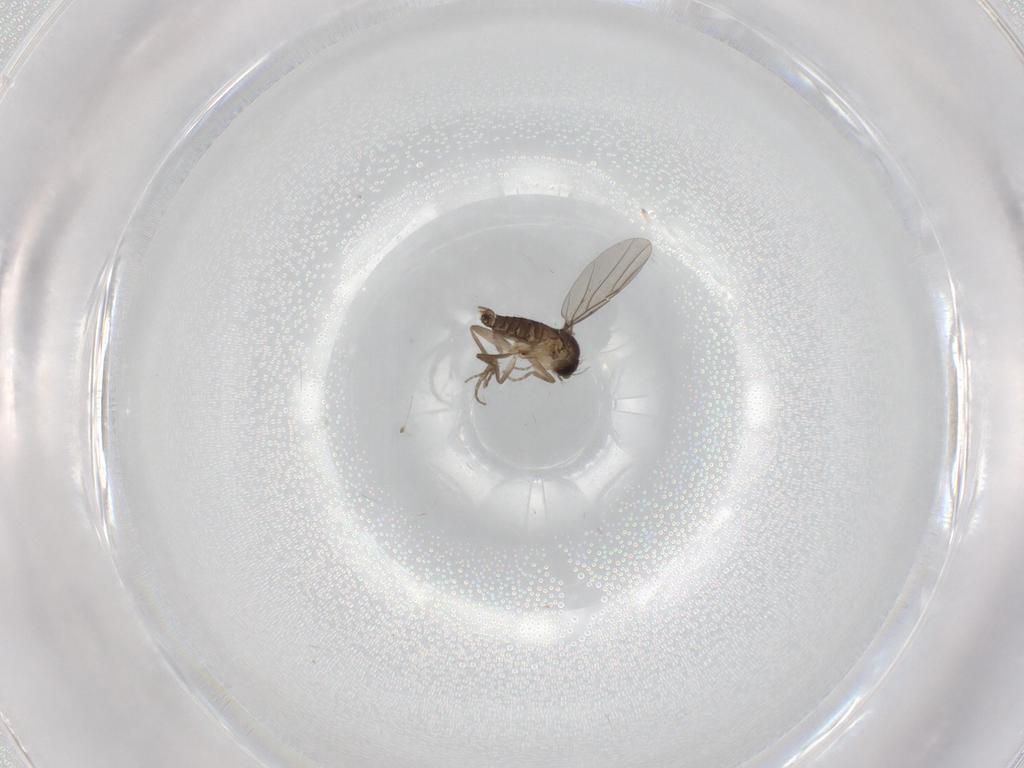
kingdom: Animalia
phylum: Arthropoda
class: Insecta
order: Diptera
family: Phoridae
